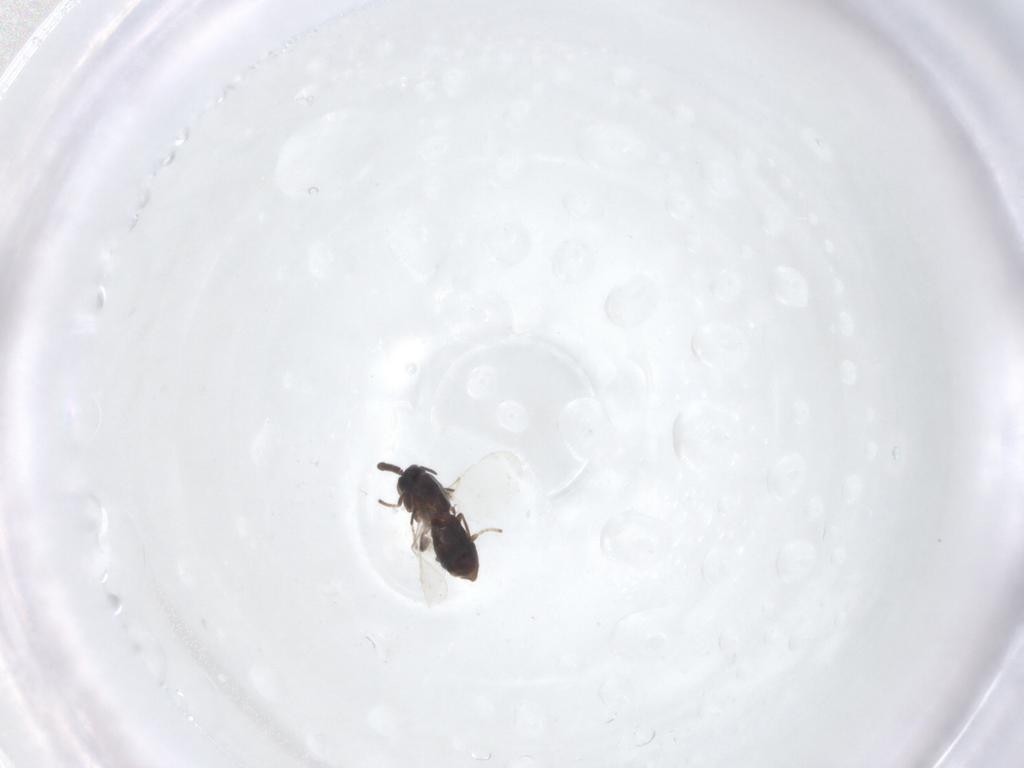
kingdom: Animalia
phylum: Arthropoda
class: Insecta
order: Diptera
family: Scatopsidae
